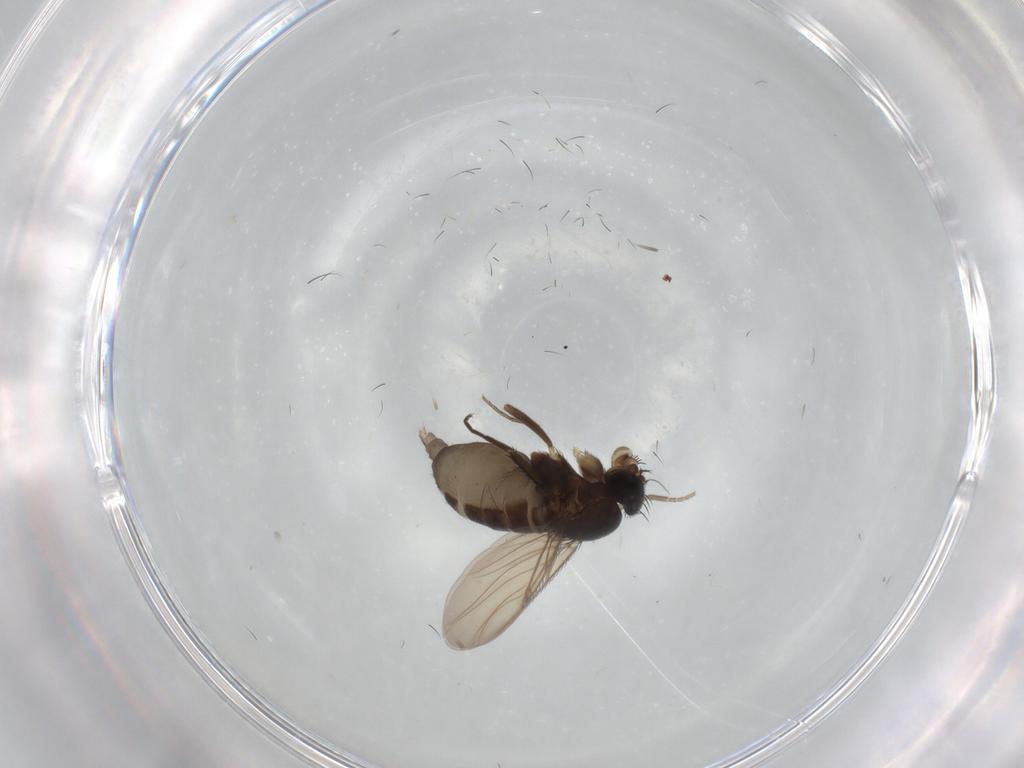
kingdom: Animalia
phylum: Arthropoda
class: Insecta
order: Diptera
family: Phoridae
